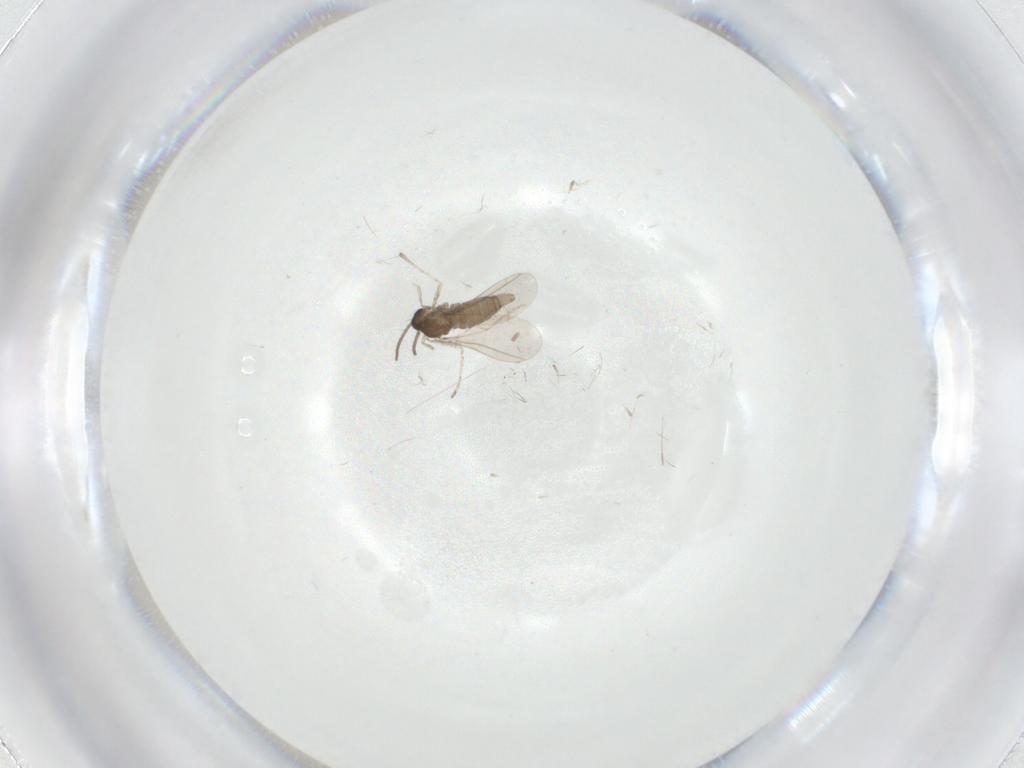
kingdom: Animalia
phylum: Arthropoda
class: Insecta
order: Diptera
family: Cecidomyiidae
